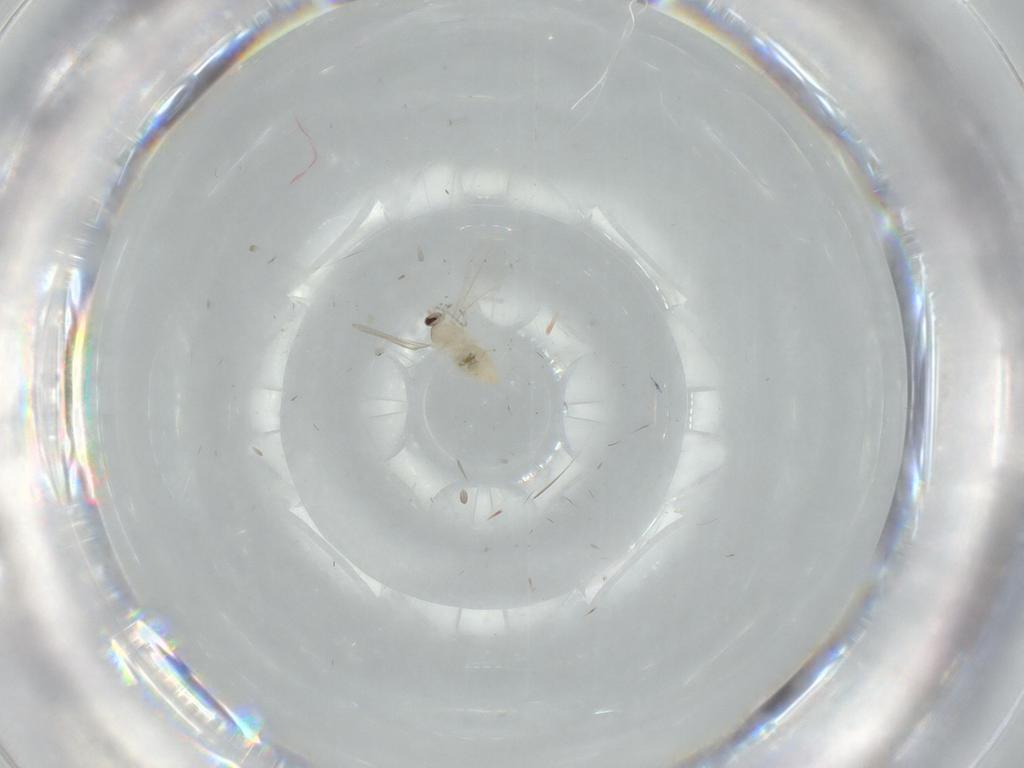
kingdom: Animalia
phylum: Arthropoda
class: Insecta
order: Diptera
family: Cecidomyiidae
